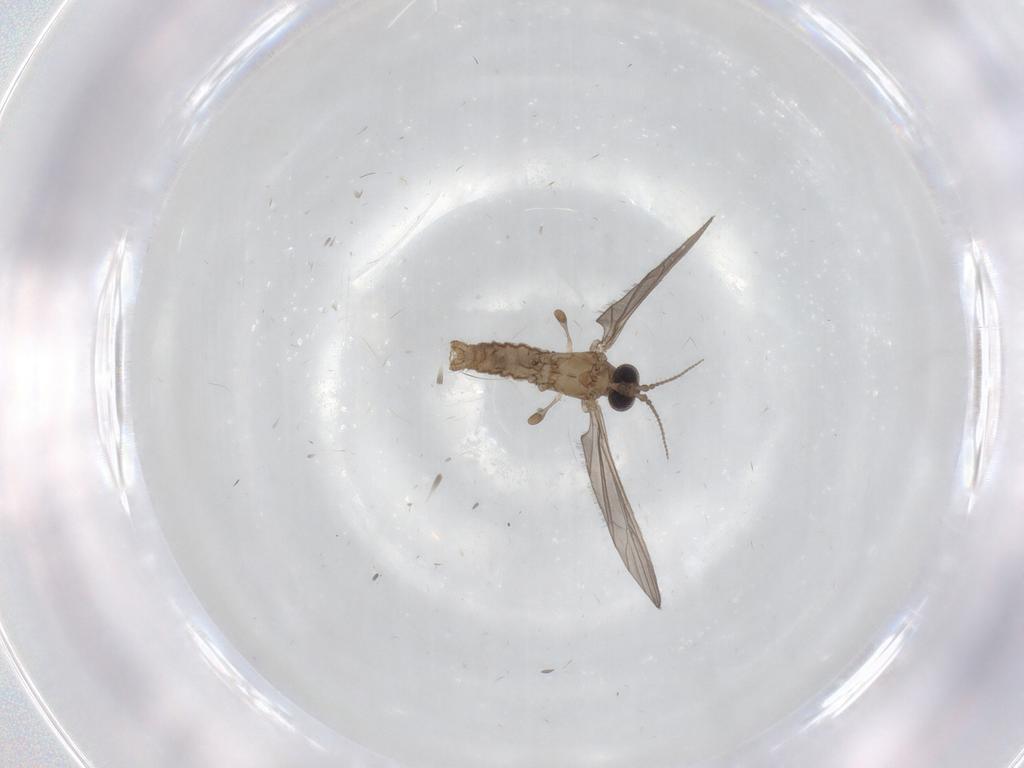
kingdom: Animalia
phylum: Arthropoda
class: Insecta
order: Diptera
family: Limoniidae
